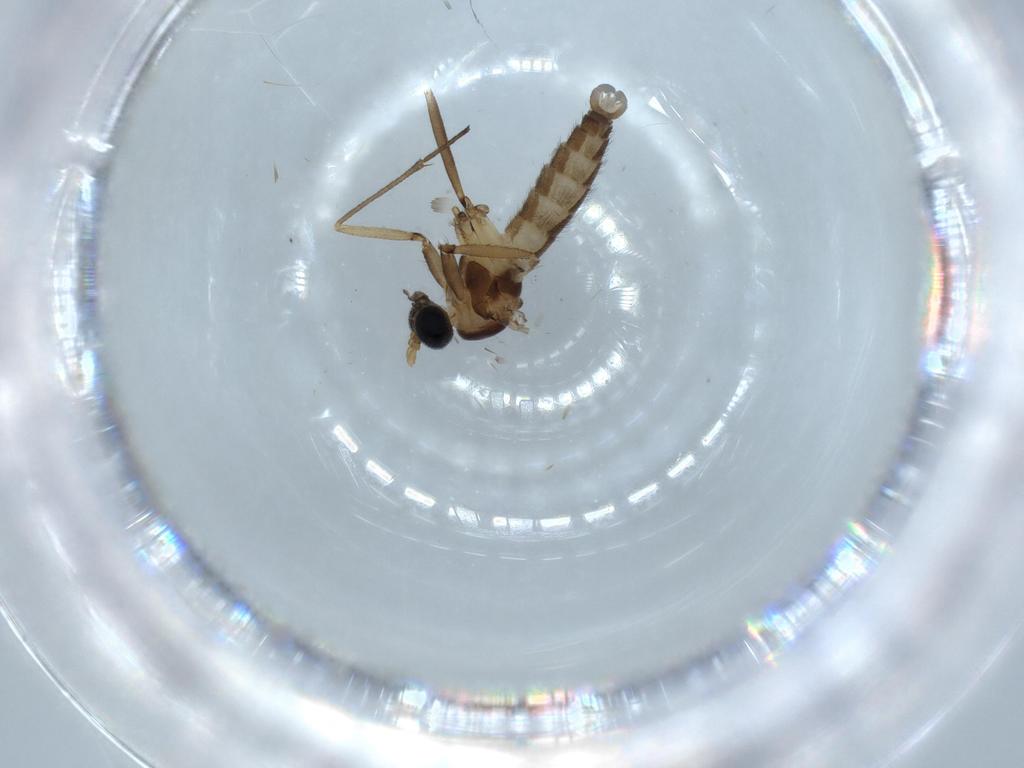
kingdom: Animalia
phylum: Arthropoda
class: Insecta
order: Diptera
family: Sciaridae
